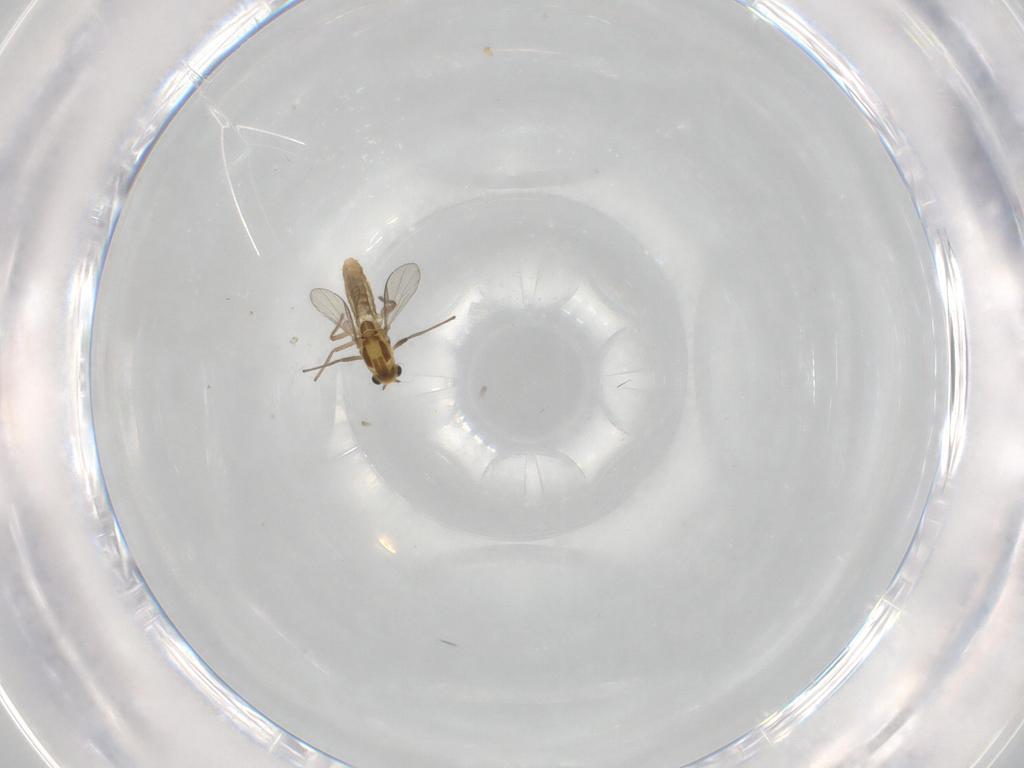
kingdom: Animalia
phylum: Arthropoda
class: Insecta
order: Diptera
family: Chironomidae
